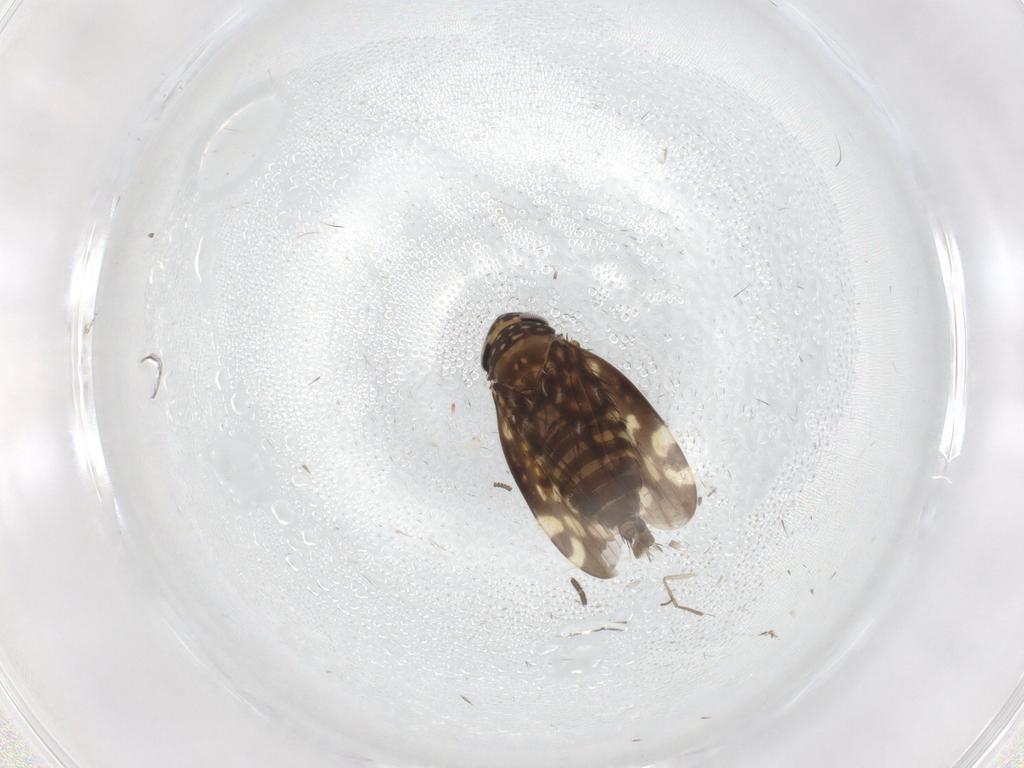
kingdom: Animalia
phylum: Arthropoda
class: Insecta
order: Hemiptera
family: Cicadellidae
